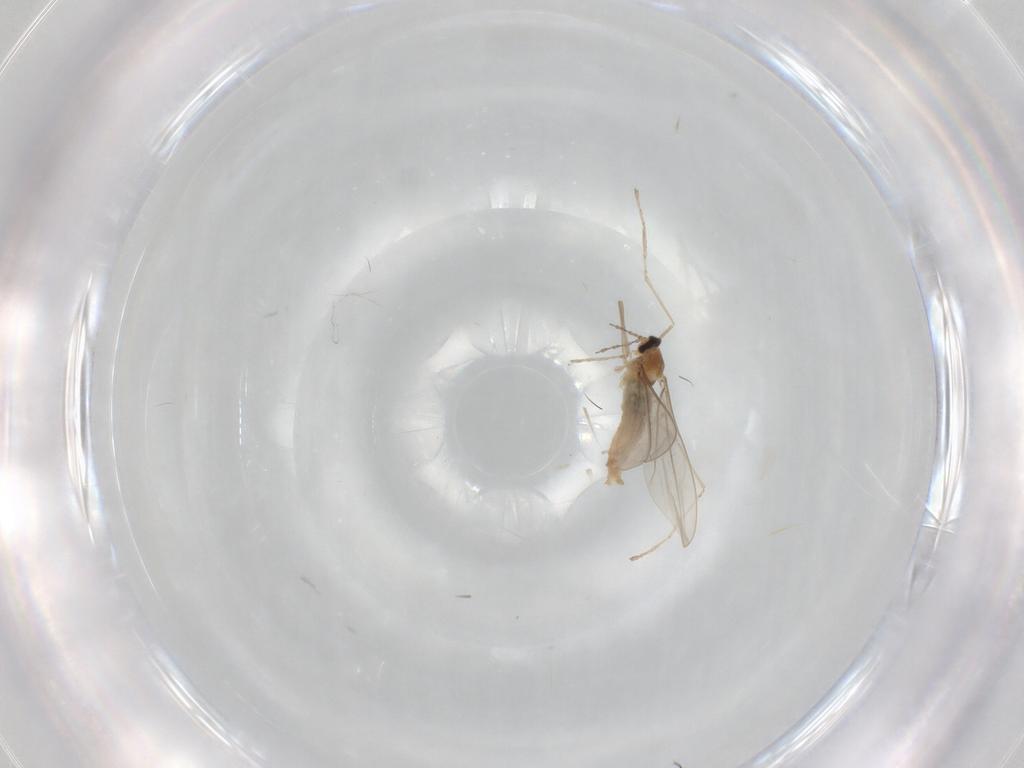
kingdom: Animalia
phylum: Arthropoda
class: Insecta
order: Diptera
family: Cecidomyiidae
